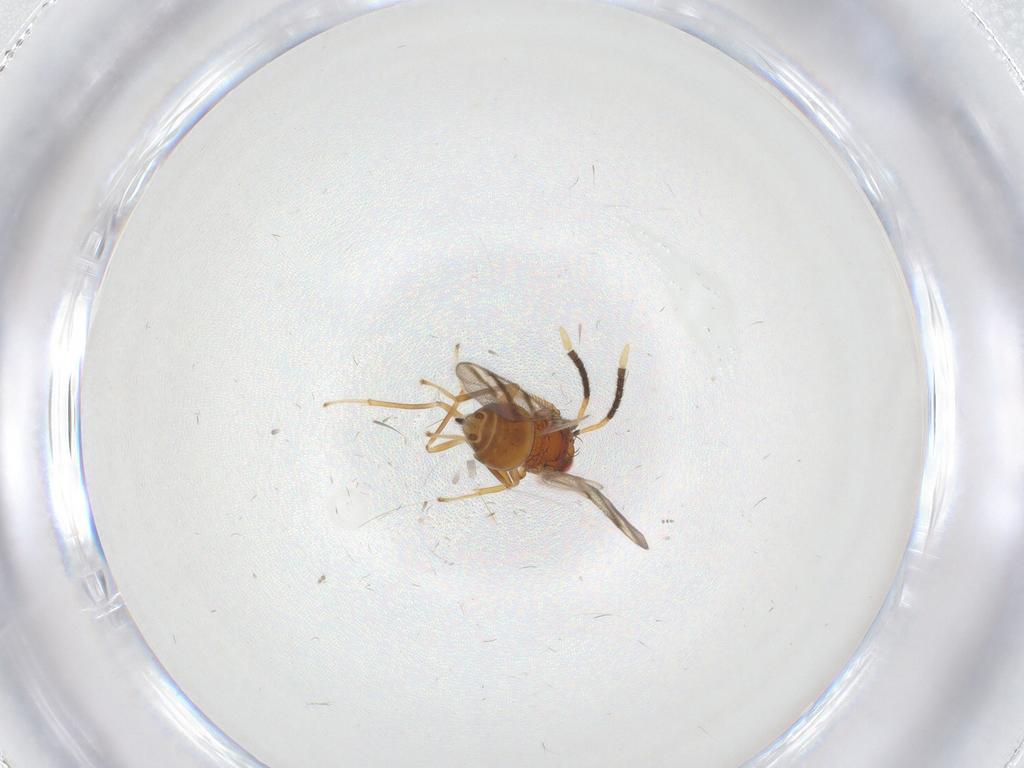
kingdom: Animalia
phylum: Arthropoda
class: Insecta
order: Hymenoptera
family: Diparidae
